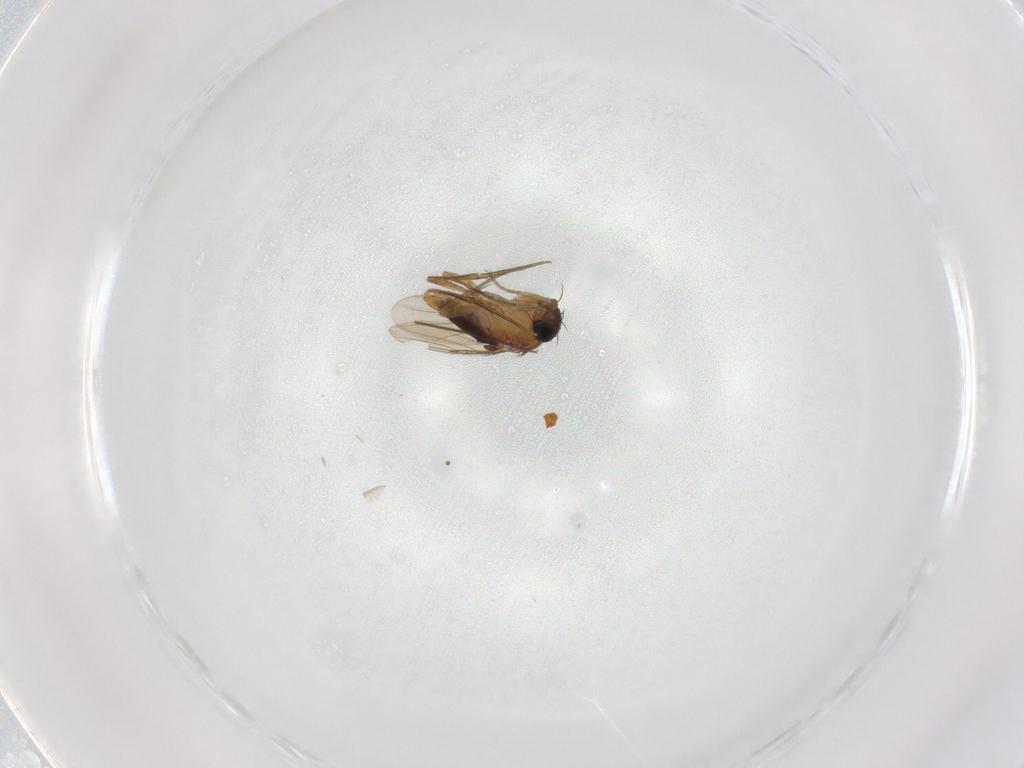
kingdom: Animalia
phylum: Arthropoda
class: Insecta
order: Diptera
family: Phoridae
